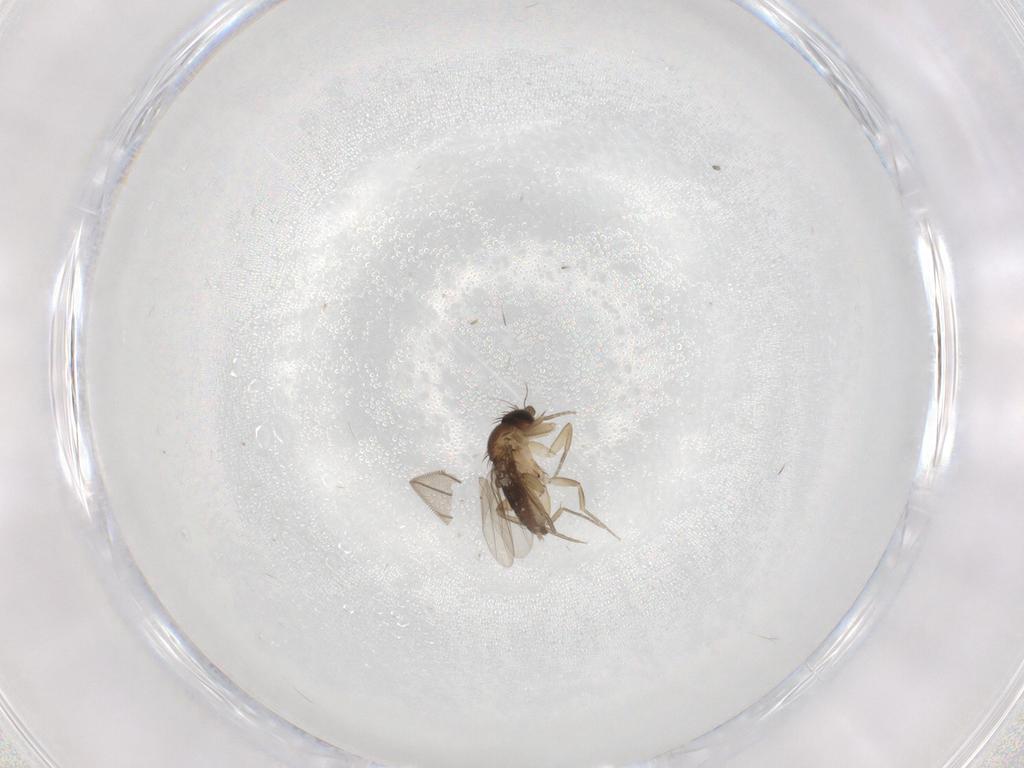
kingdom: Animalia
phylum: Arthropoda
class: Insecta
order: Diptera
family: Phoridae
